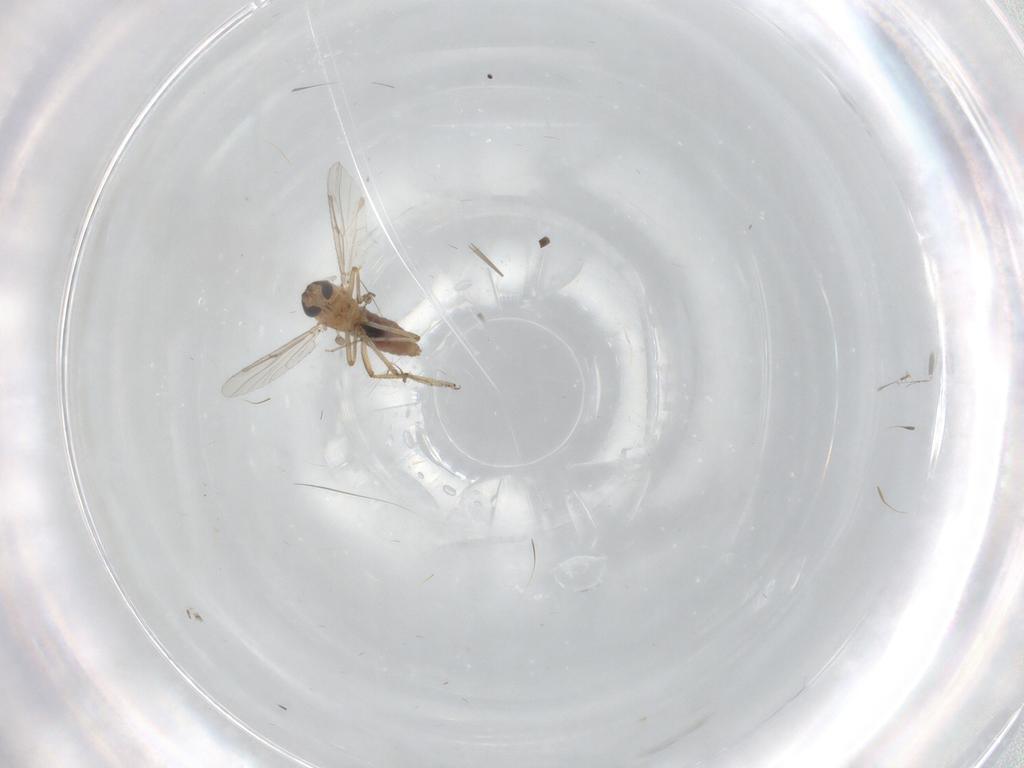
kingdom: Animalia
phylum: Arthropoda
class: Insecta
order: Diptera
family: Ceratopogonidae
